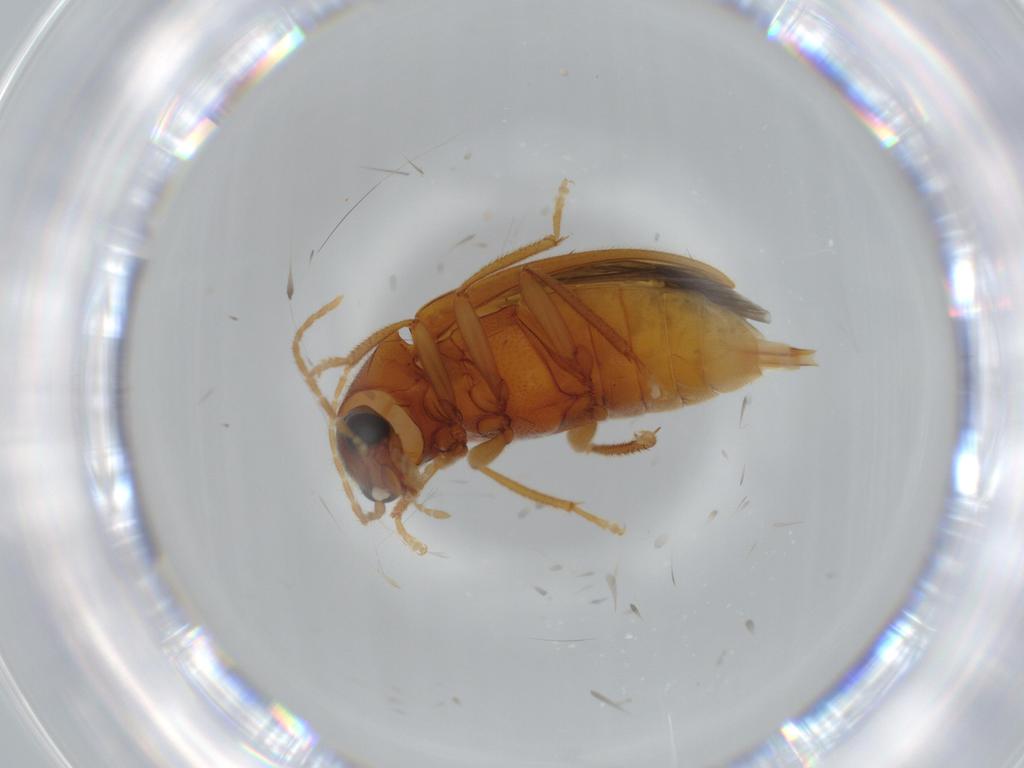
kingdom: Animalia
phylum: Arthropoda
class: Insecta
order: Coleoptera
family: Ptilodactylidae
